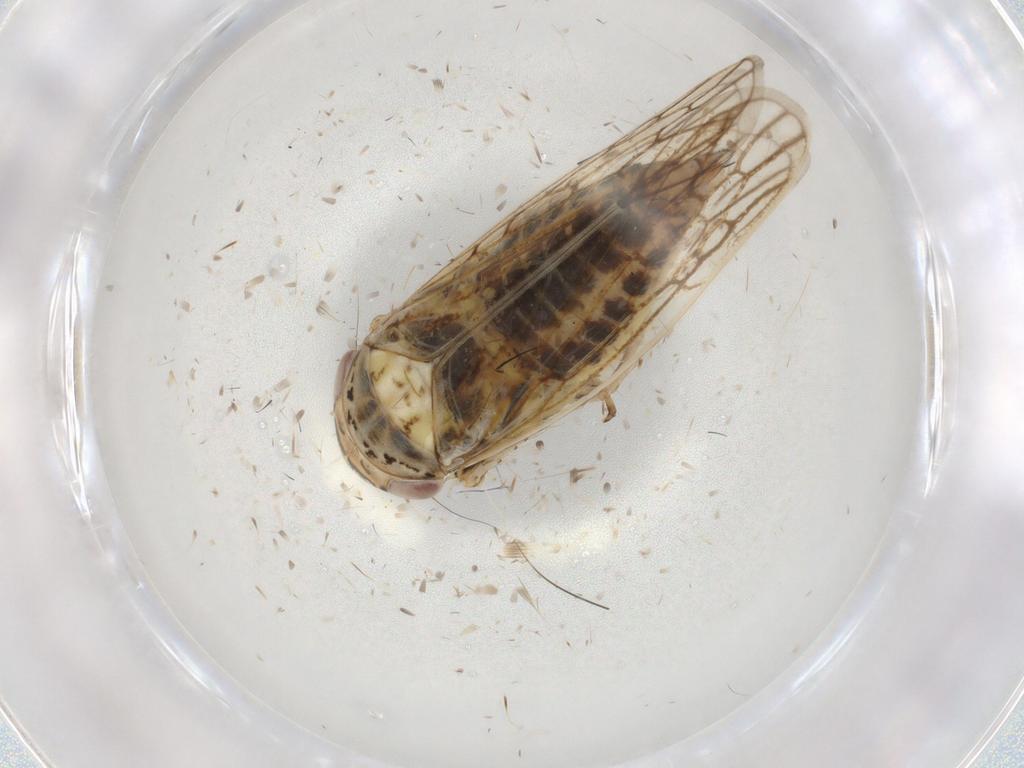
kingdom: Animalia
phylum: Arthropoda
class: Insecta
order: Hemiptera
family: Cicadellidae
